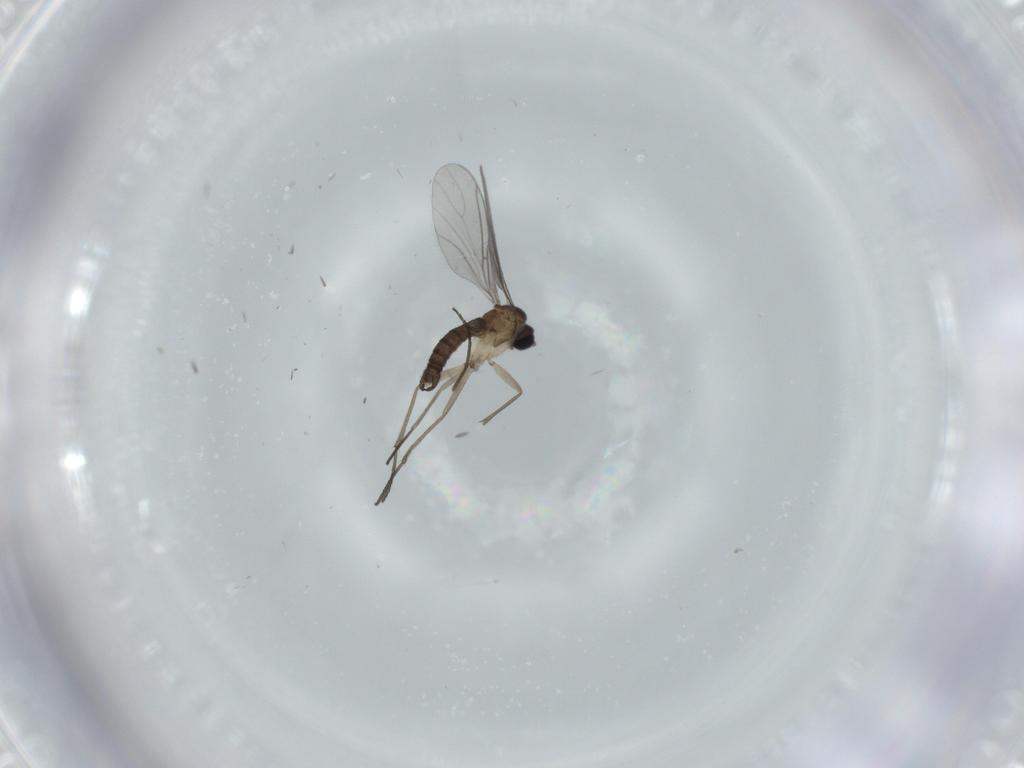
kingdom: Animalia
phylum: Arthropoda
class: Insecta
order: Diptera
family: Sciaridae
